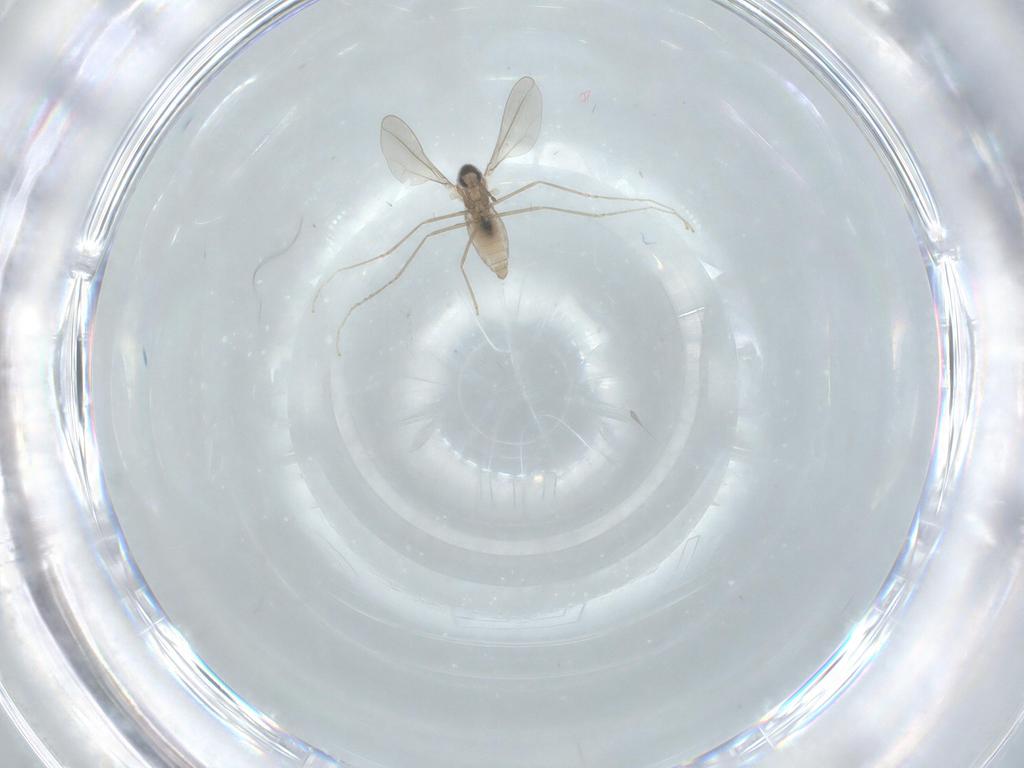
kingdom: Animalia
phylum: Arthropoda
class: Insecta
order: Diptera
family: Cecidomyiidae
